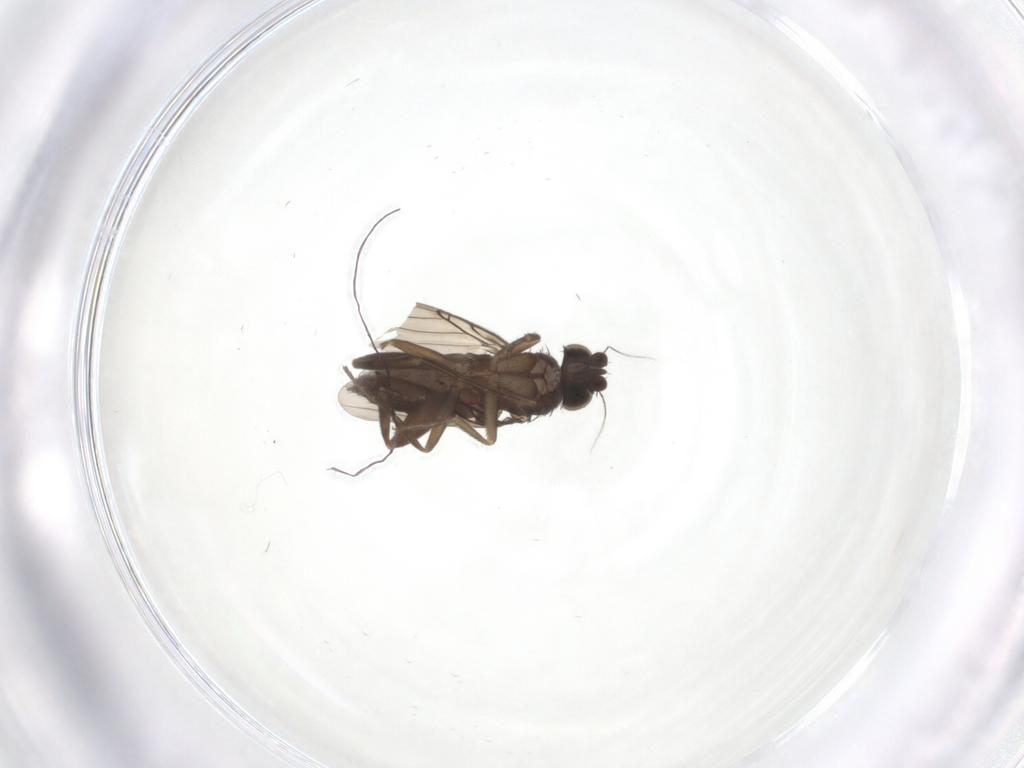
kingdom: Animalia
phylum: Arthropoda
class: Insecta
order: Diptera
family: Phoridae
